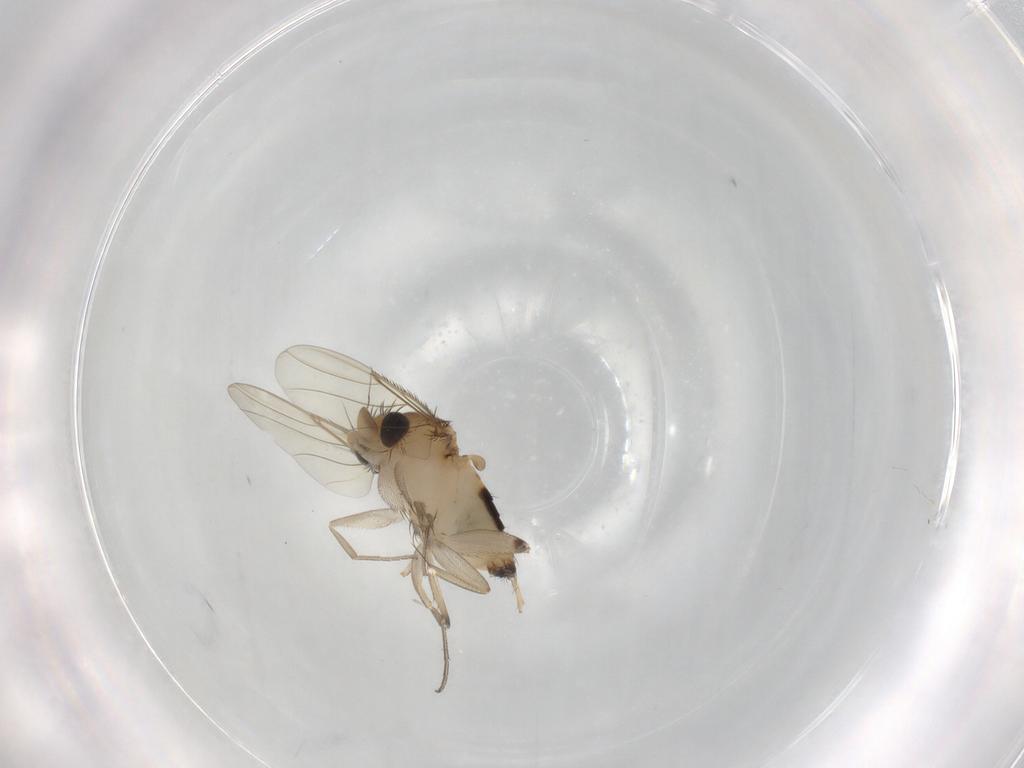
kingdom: Animalia
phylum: Arthropoda
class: Insecta
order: Diptera
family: Phoridae
